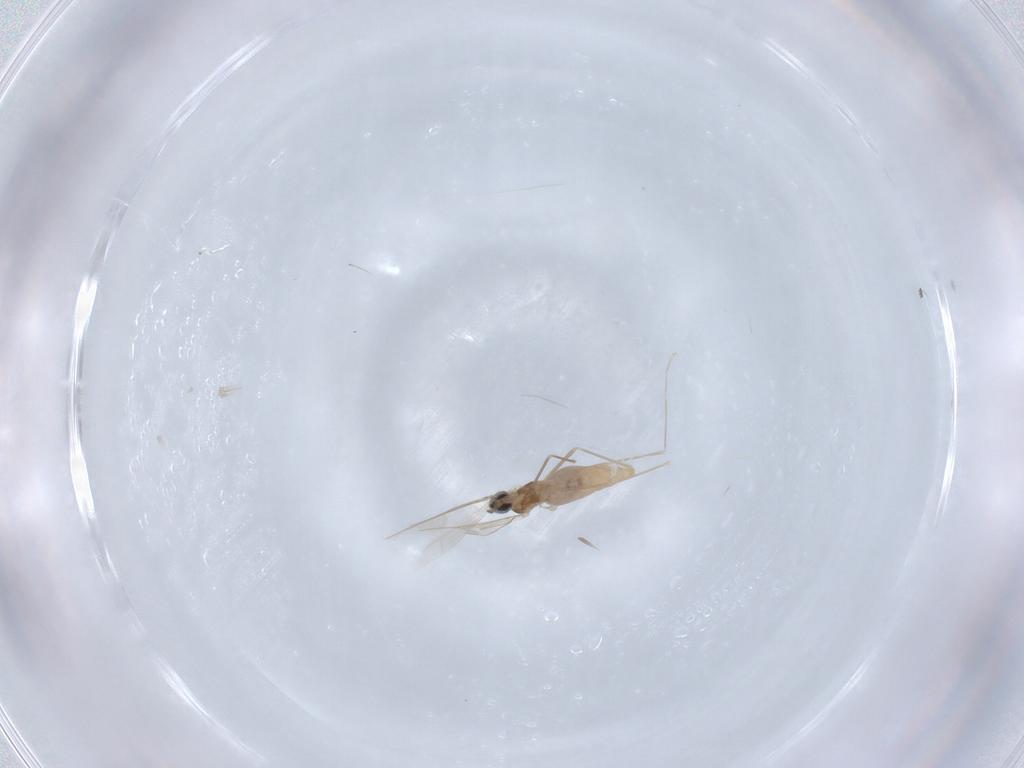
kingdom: Animalia
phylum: Arthropoda
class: Insecta
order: Diptera
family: Cecidomyiidae
